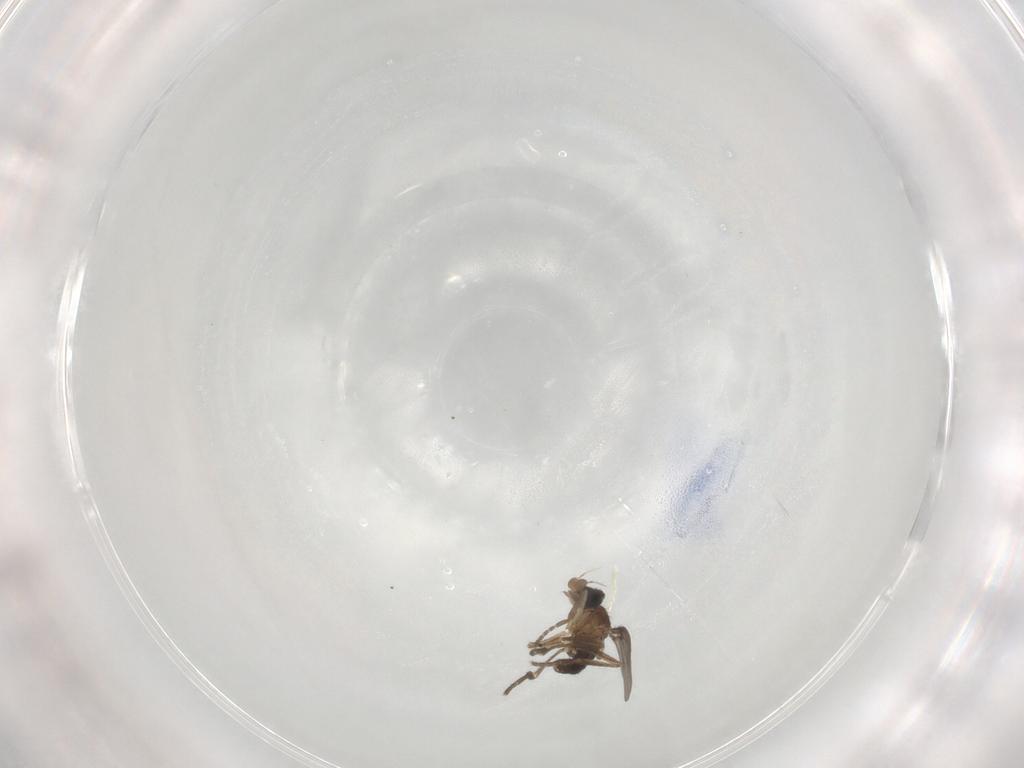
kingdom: Animalia
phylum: Arthropoda
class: Insecta
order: Diptera
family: Phoridae
